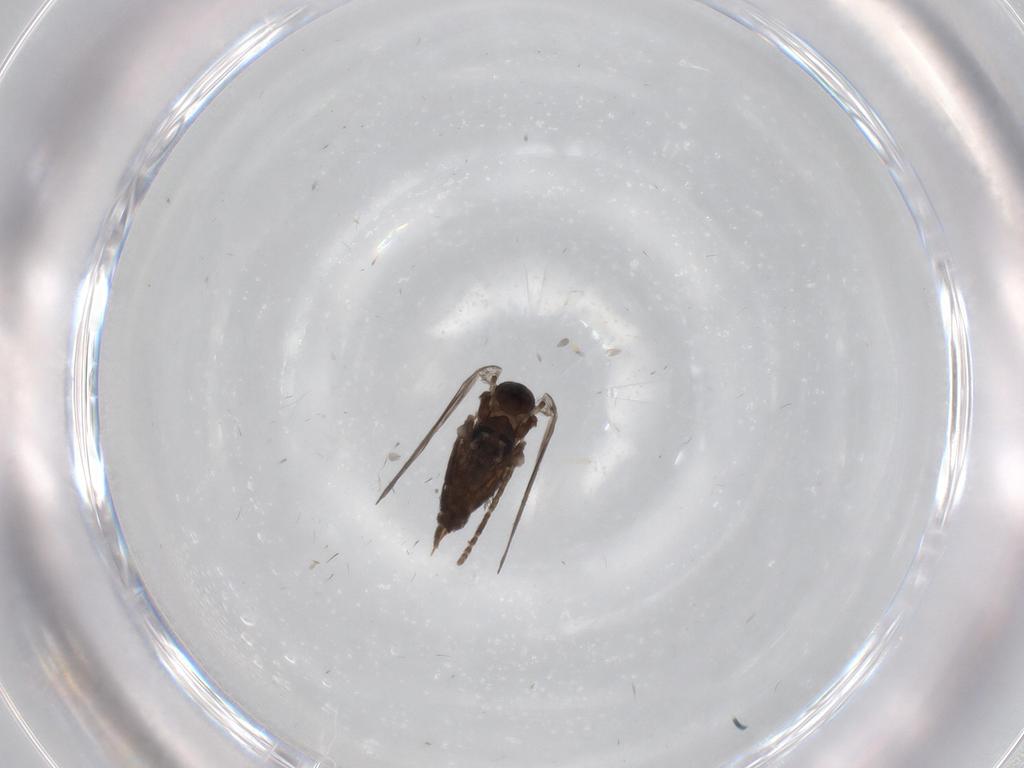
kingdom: Animalia
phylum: Arthropoda
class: Insecta
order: Diptera
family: Psychodidae
